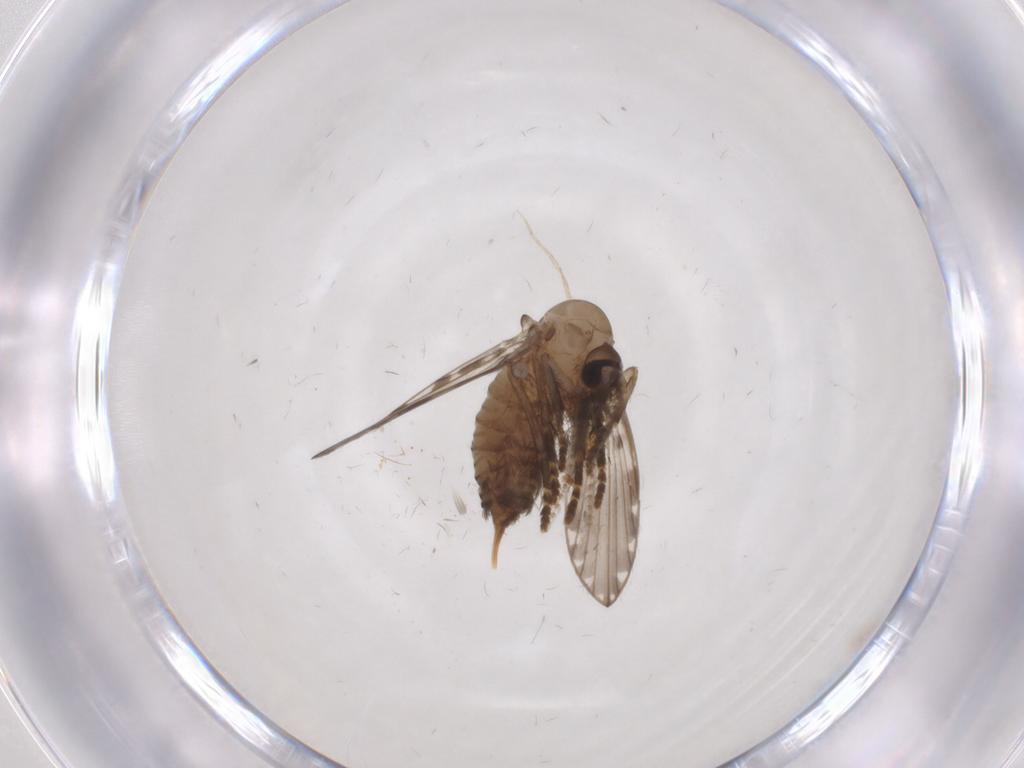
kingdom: Animalia
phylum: Arthropoda
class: Insecta
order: Diptera
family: Psychodidae
